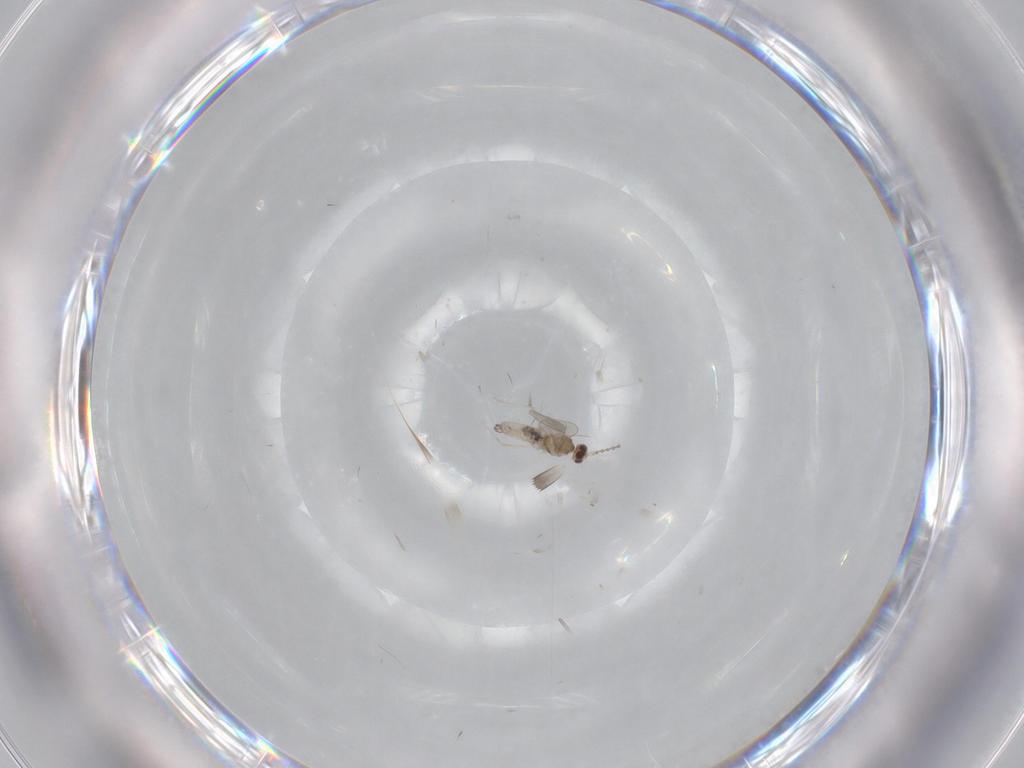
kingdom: Animalia
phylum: Arthropoda
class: Insecta
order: Diptera
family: Cecidomyiidae
